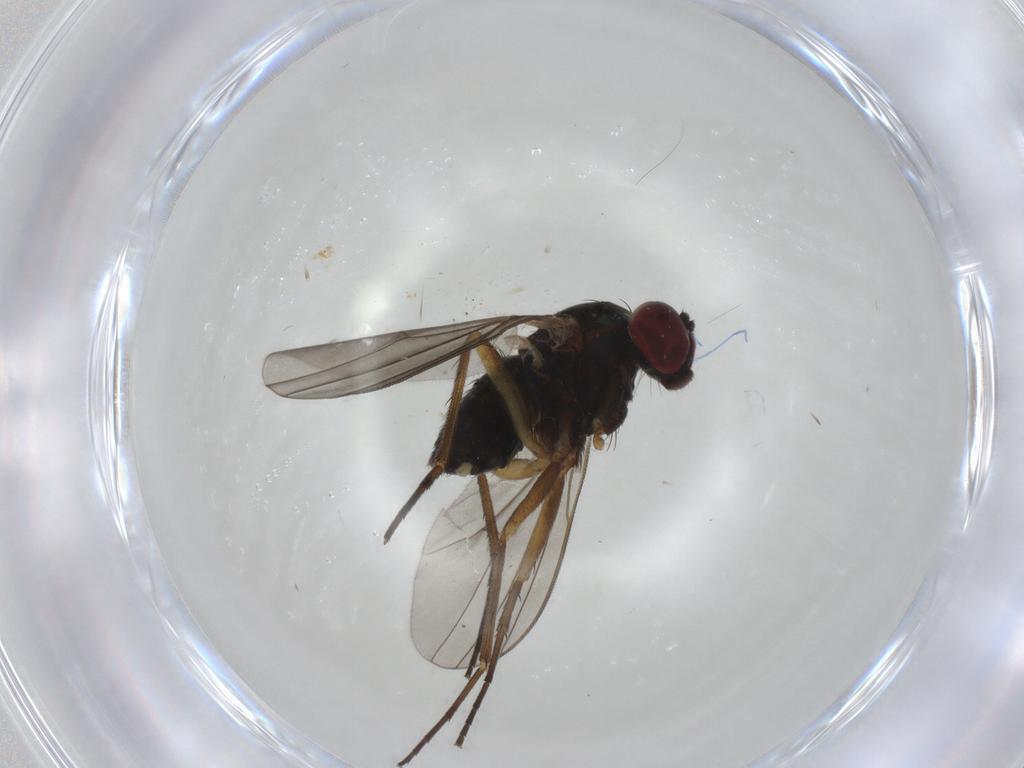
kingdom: Animalia
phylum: Arthropoda
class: Insecta
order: Diptera
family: Dolichopodidae
